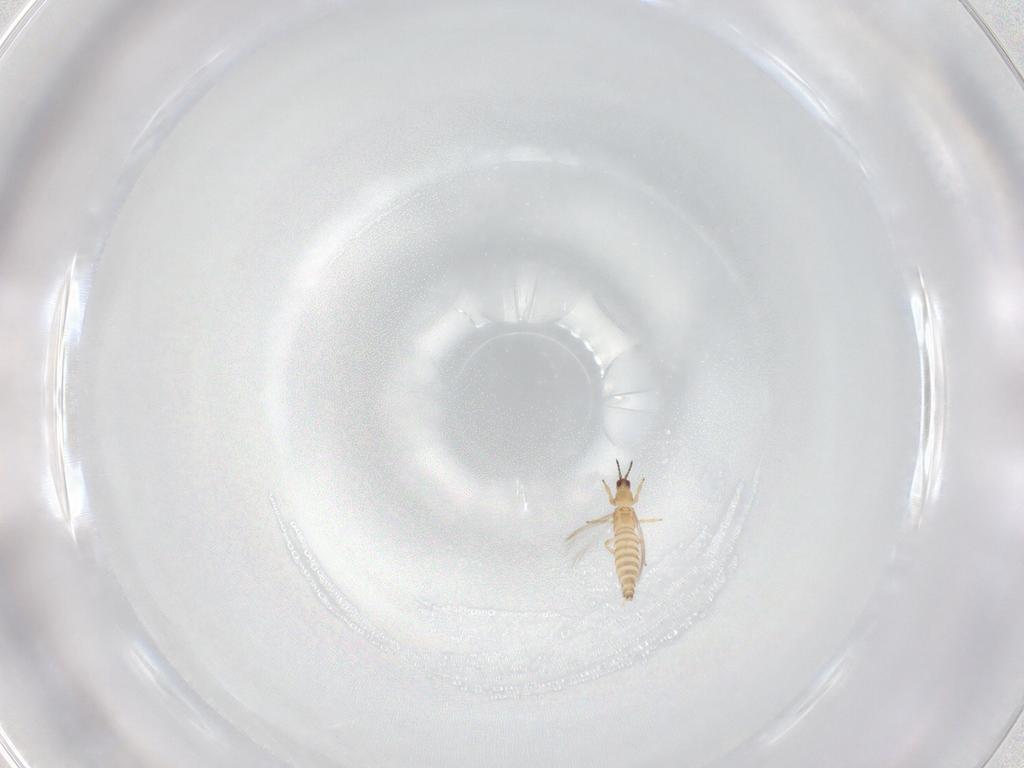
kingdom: Animalia
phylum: Arthropoda
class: Insecta
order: Thysanoptera
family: Thripidae
